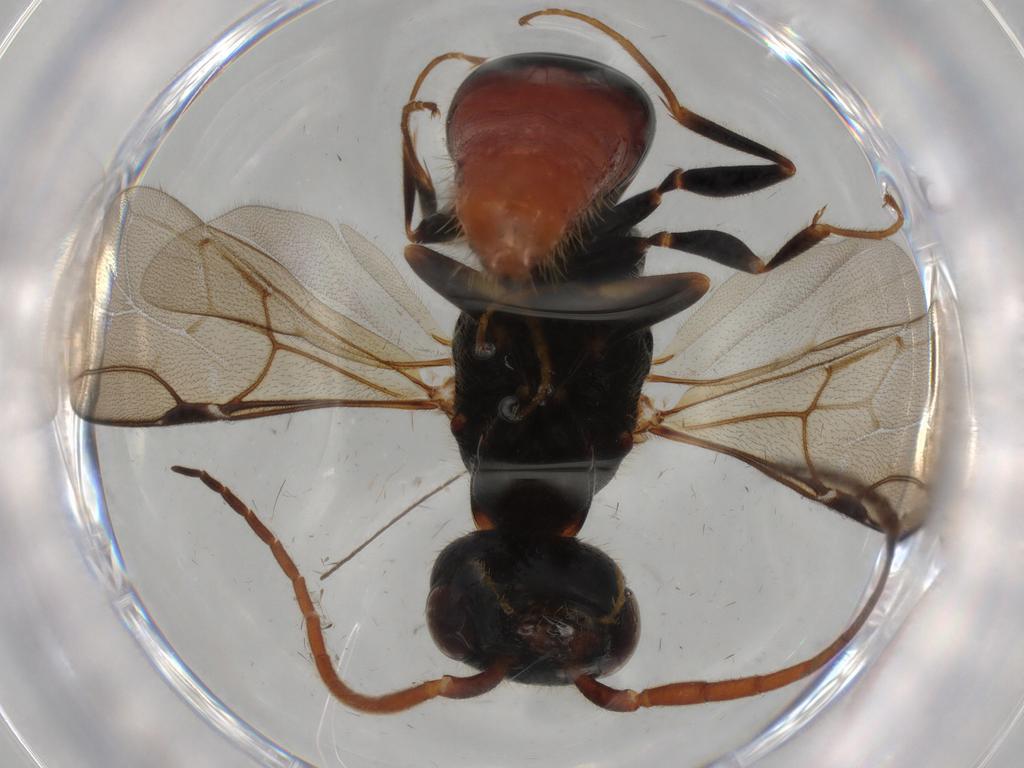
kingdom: Animalia
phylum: Arthropoda
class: Insecta
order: Hymenoptera
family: Bethylidae
